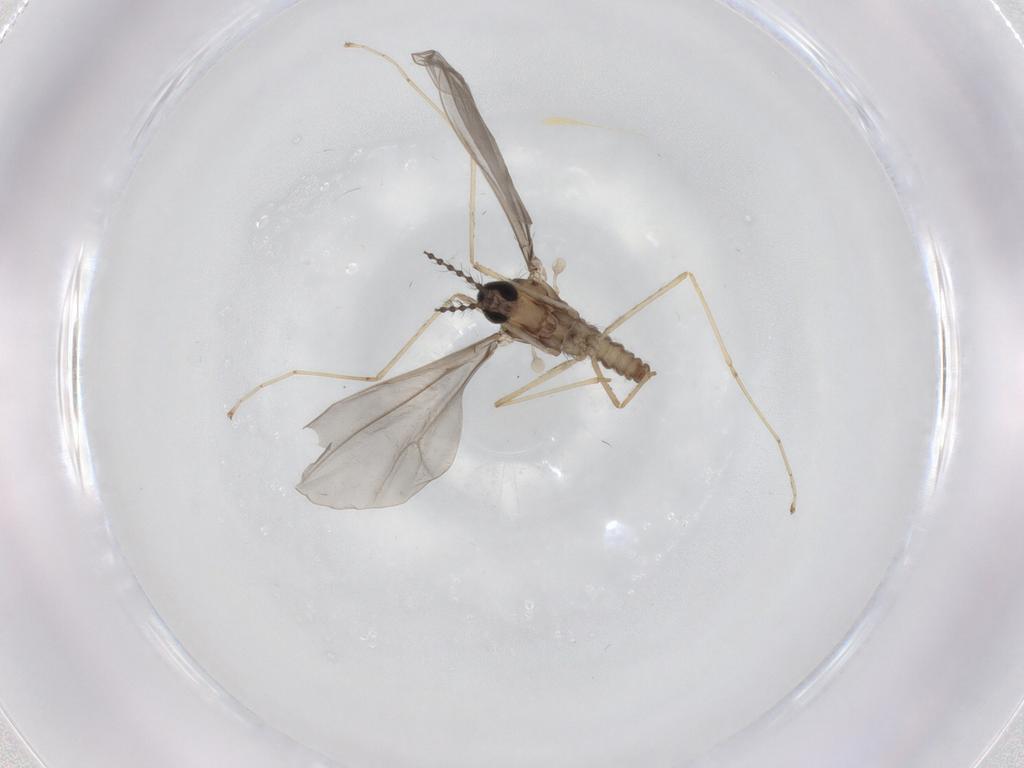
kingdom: Animalia
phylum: Arthropoda
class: Insecta
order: Diptera
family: Cecidomyiidae
